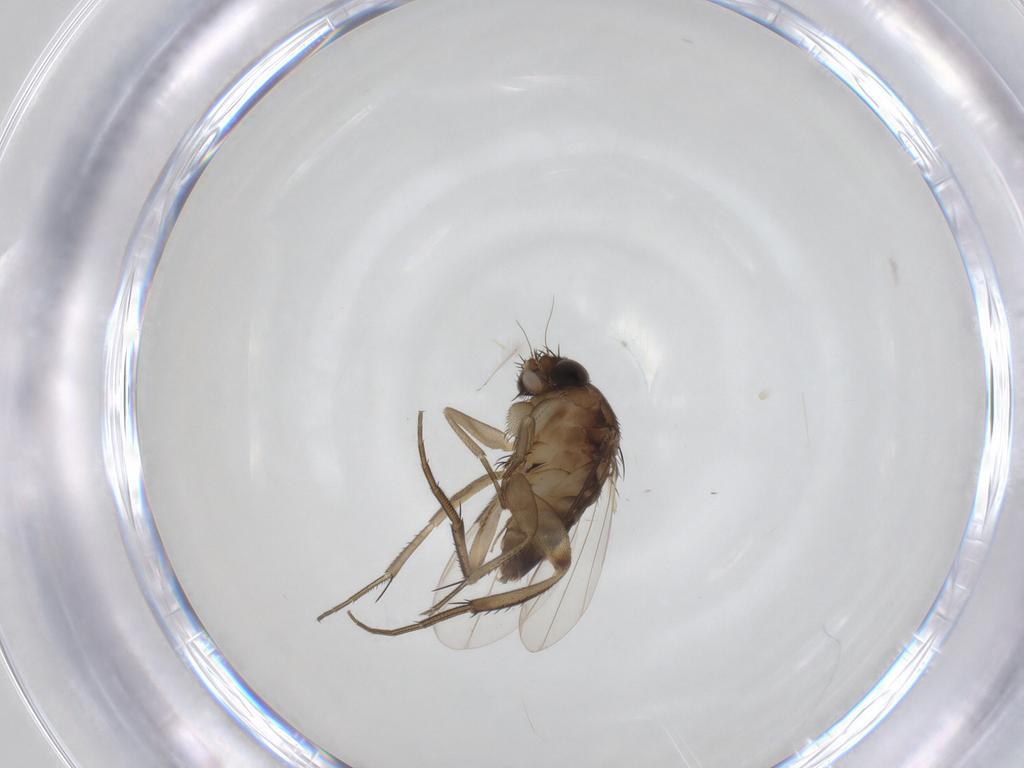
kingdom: Animalia
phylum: Arthropoda
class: Insecta
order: Diptera
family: Phoridae
